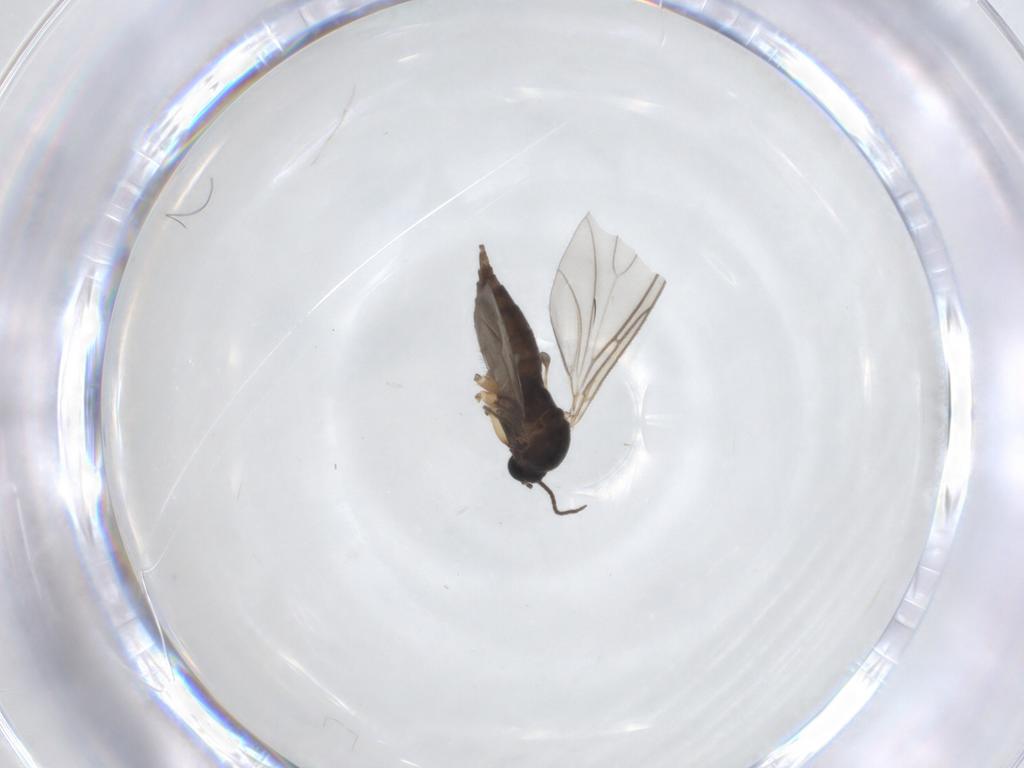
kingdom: Animalia
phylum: Arthropoda
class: Insecta
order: Diptera
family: Sciaridae
